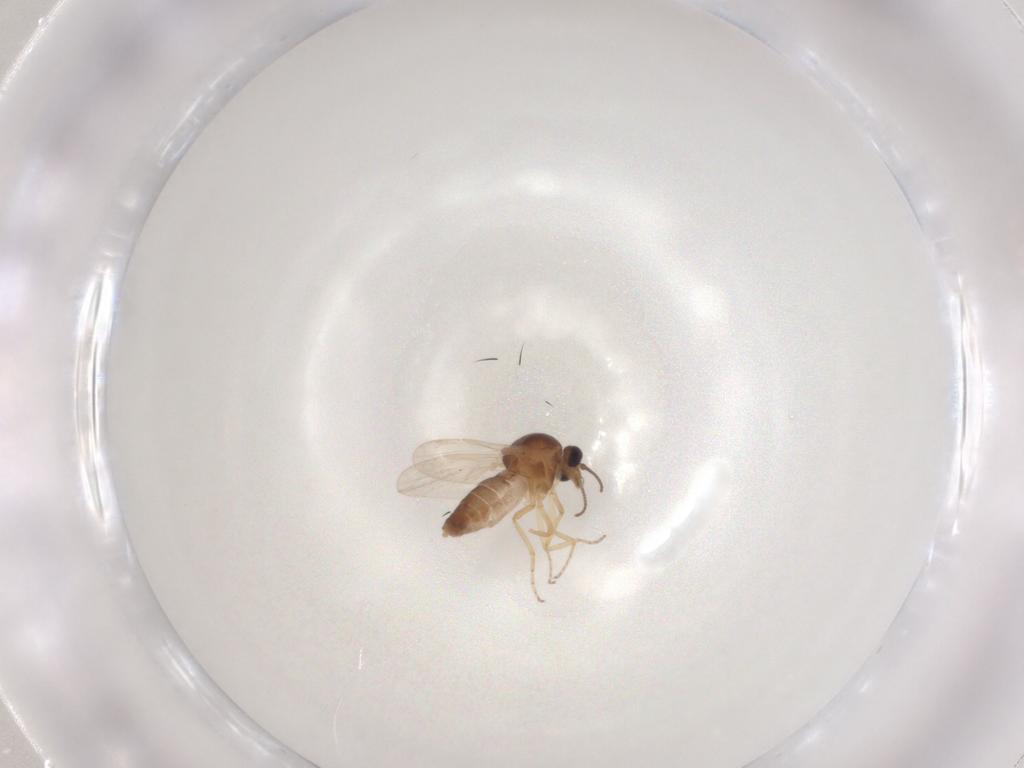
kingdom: Animalia
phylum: Arthropoda
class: Insecta
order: Diptera
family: Ceratopogonidae
